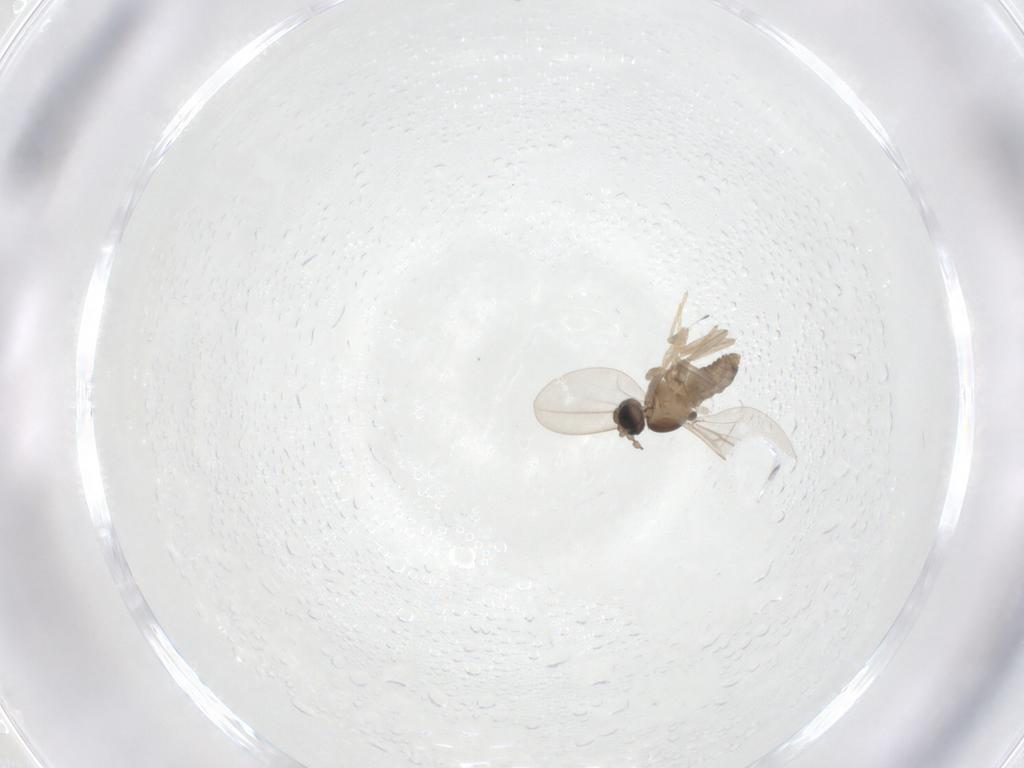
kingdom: Animalia
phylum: Arthropoda
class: Insecta
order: Diptera
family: Cecidomyiidae
